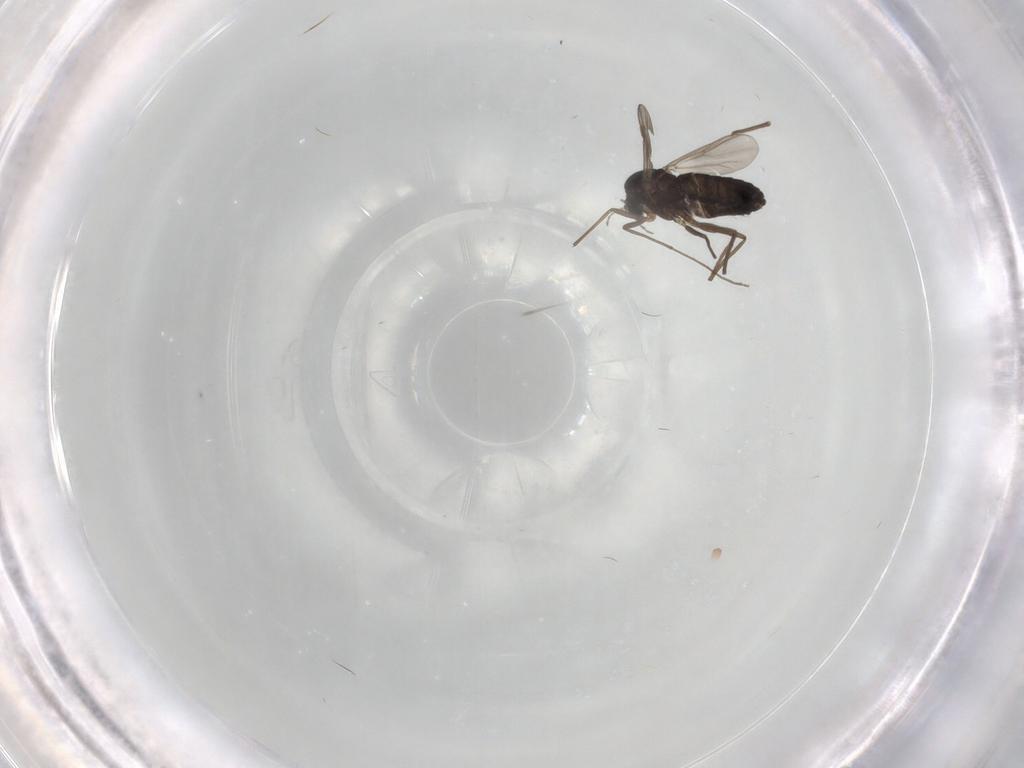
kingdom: Animalia
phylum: Arthropoda
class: Insecta
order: Diptera
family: Chironomidae
